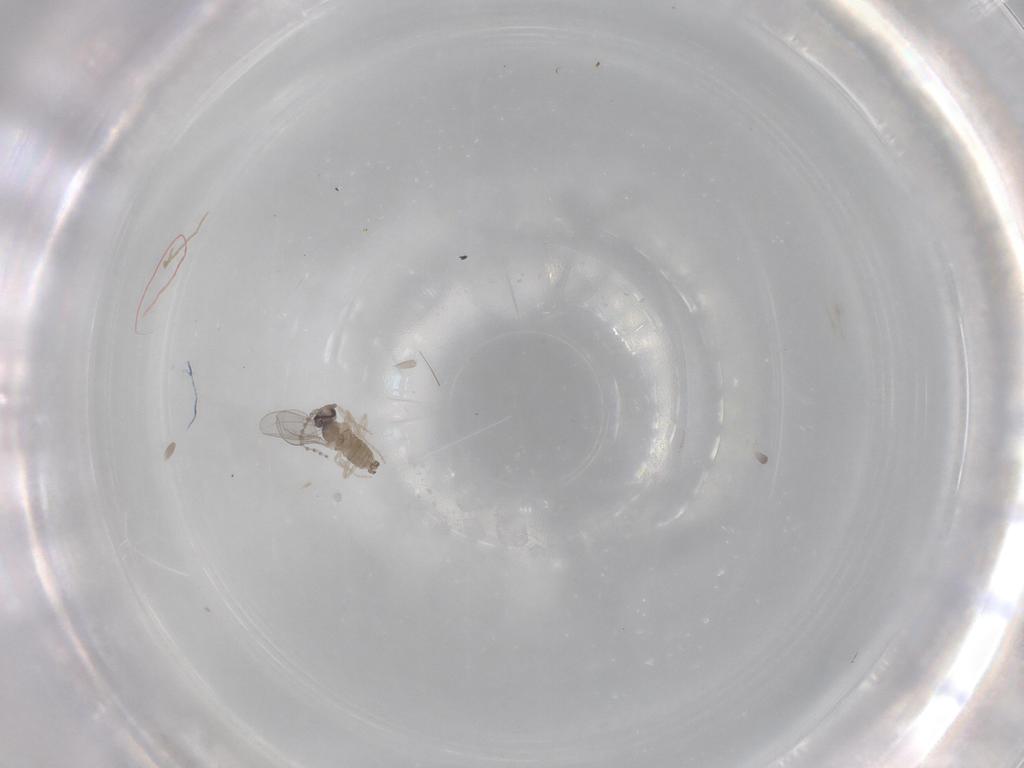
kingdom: Animalia
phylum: Arthropoda
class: Insecta
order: Diptera
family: Cecidomyiidae
